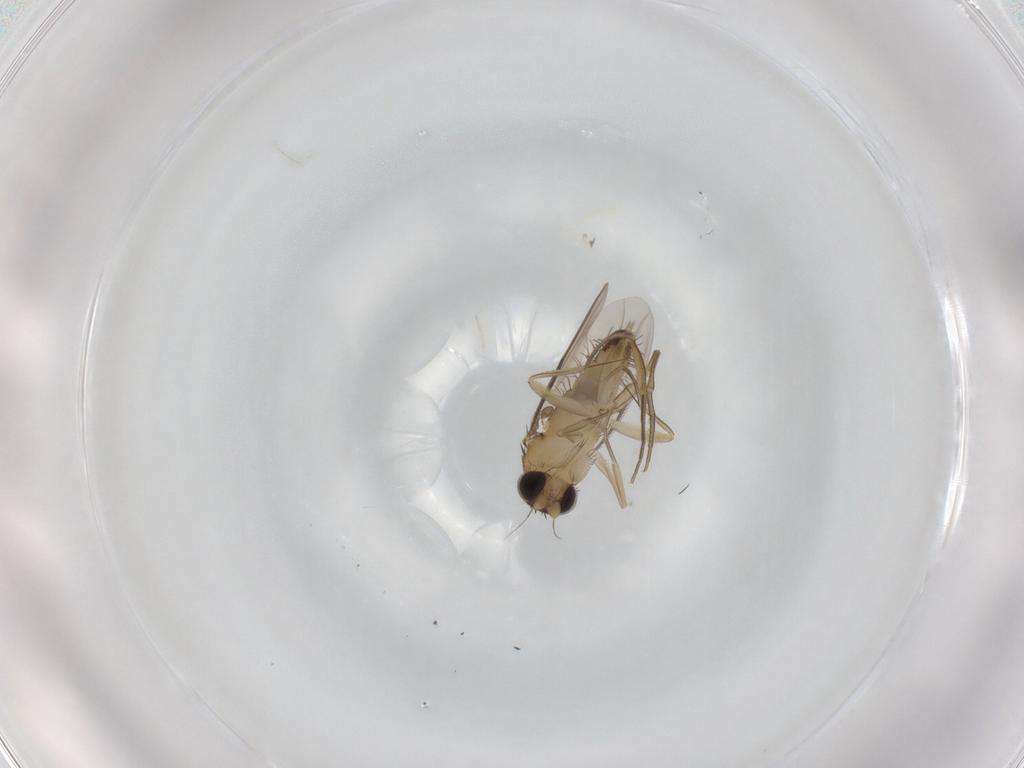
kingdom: Animalia
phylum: Arthropoda
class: Insecta
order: Diptera
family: Phoridae
